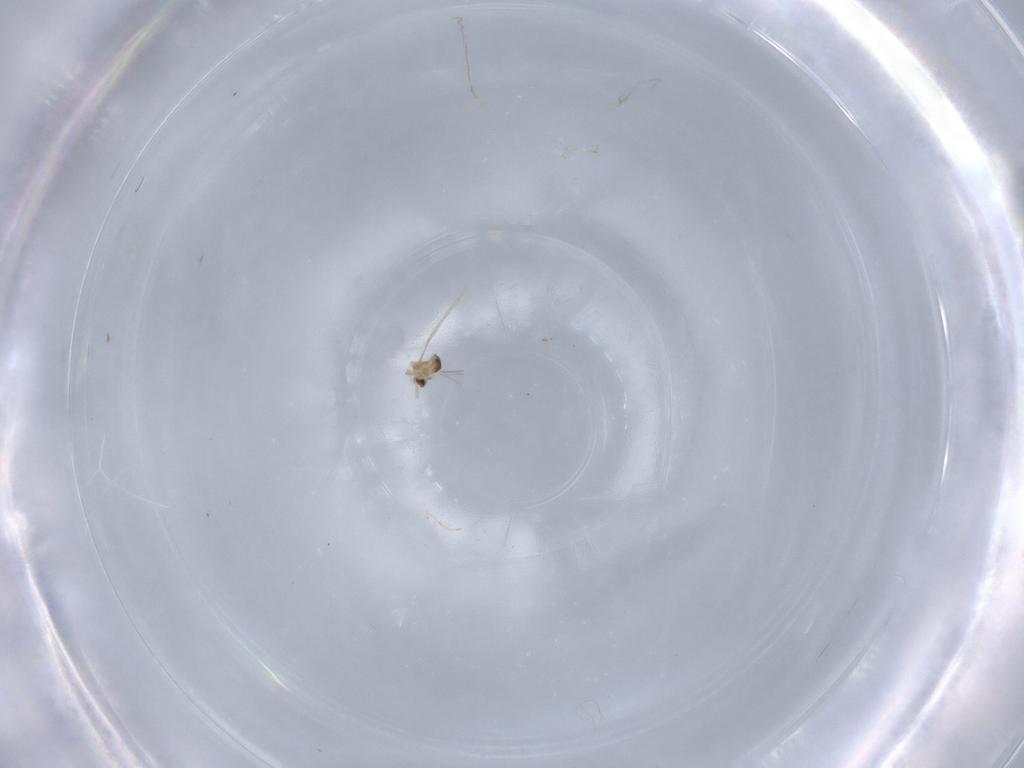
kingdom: Animalia
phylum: Arthropoda
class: Insecta
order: Diptera
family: Cecidomyiidae
